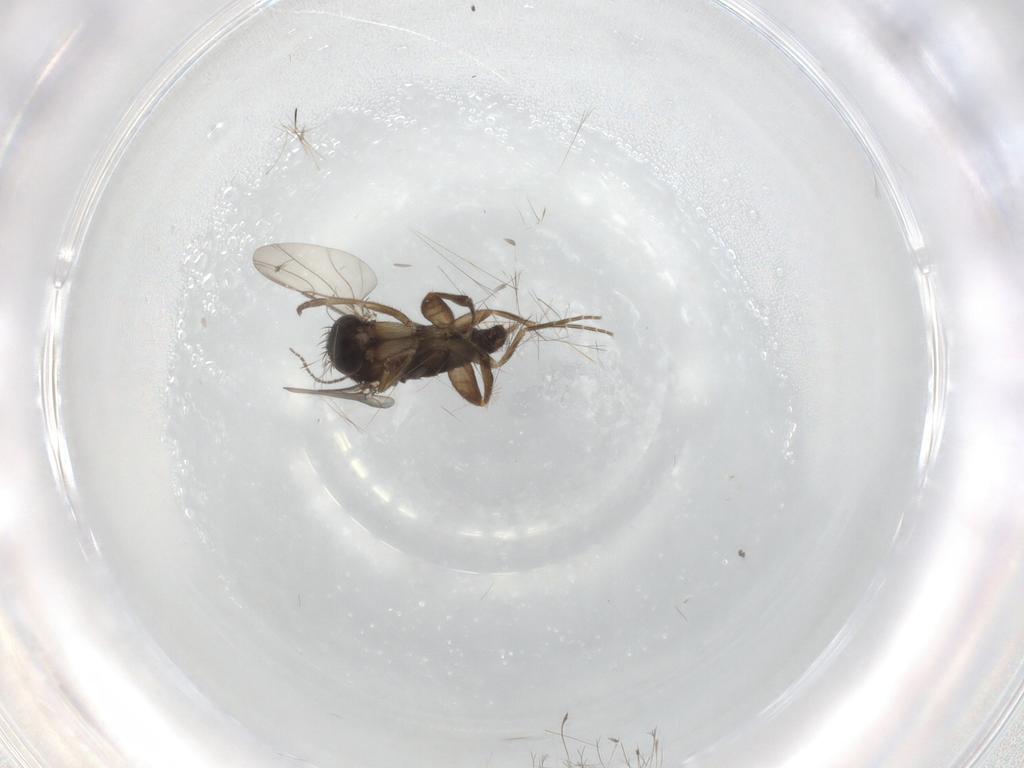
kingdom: Animalia
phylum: Arthropoda
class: Insecta
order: Diptera
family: Phoridae
